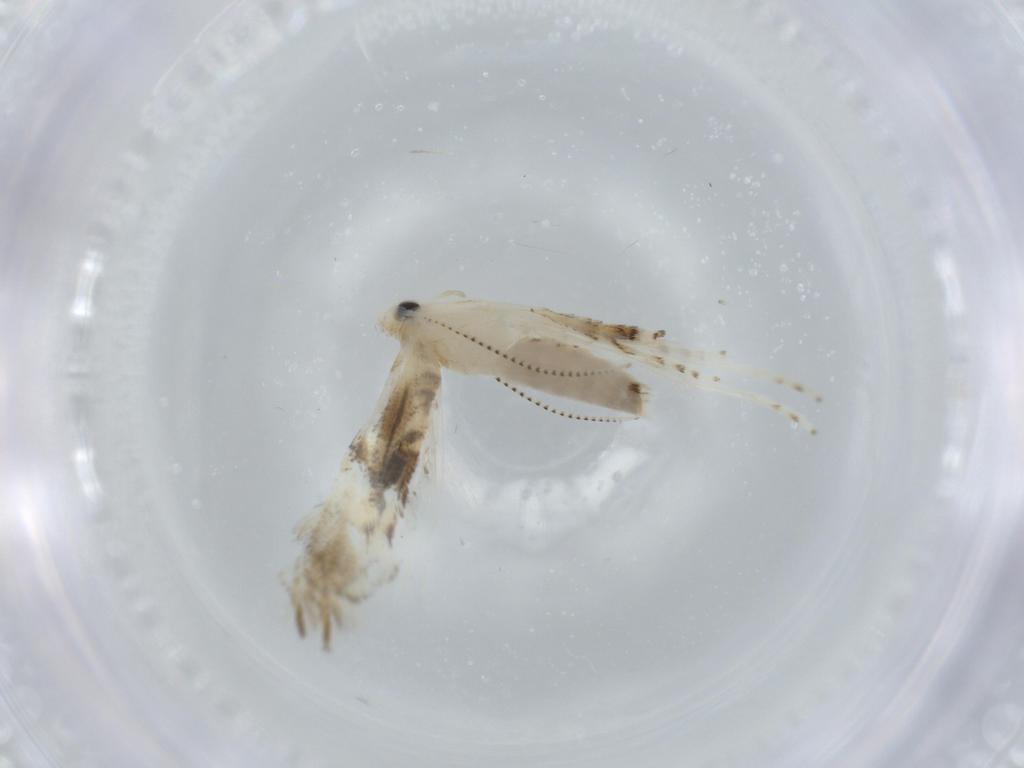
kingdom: Animalia
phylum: Arthropoda
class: Insecta
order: Lepidoptera
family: Gracillariidae
